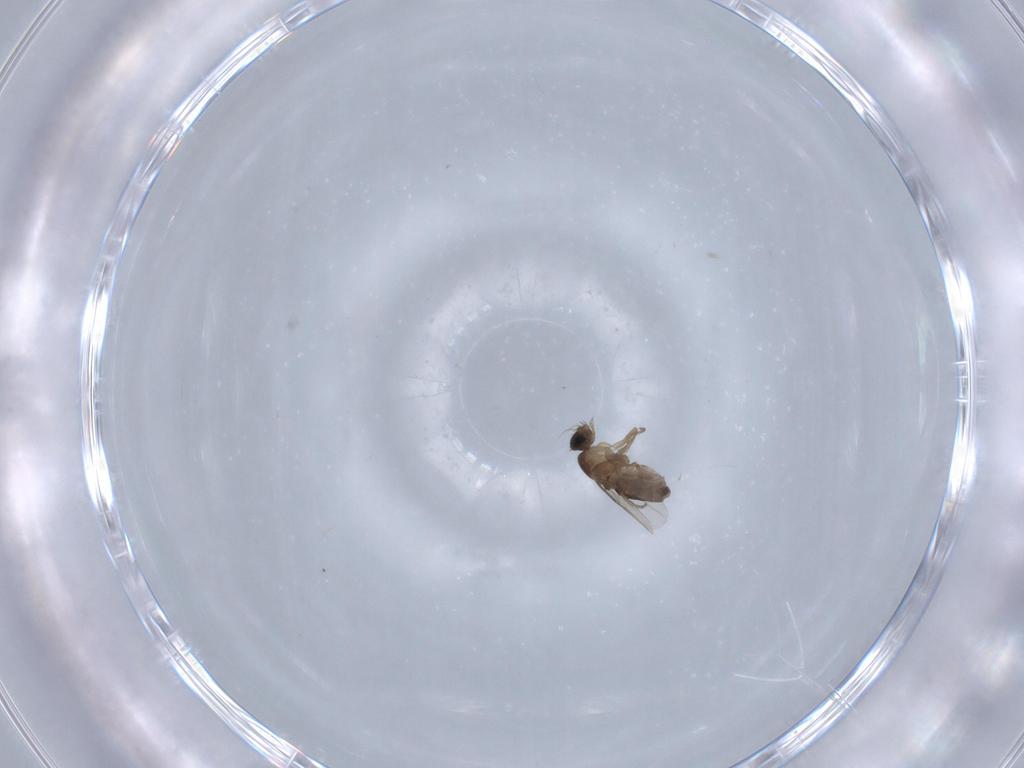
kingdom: Animalia
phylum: Arthropoda
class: Insecta
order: Diptera
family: Phoridae
